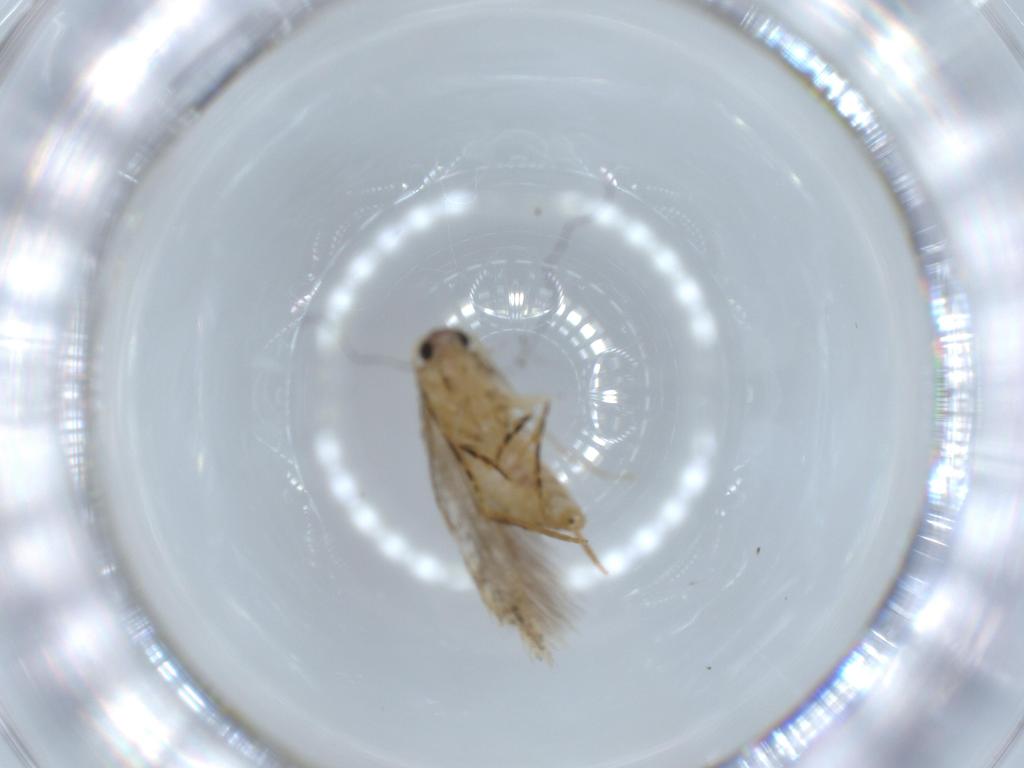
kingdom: Animalia
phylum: Arthropoda
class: Insecta
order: Lepidoptera
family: Tineidae
